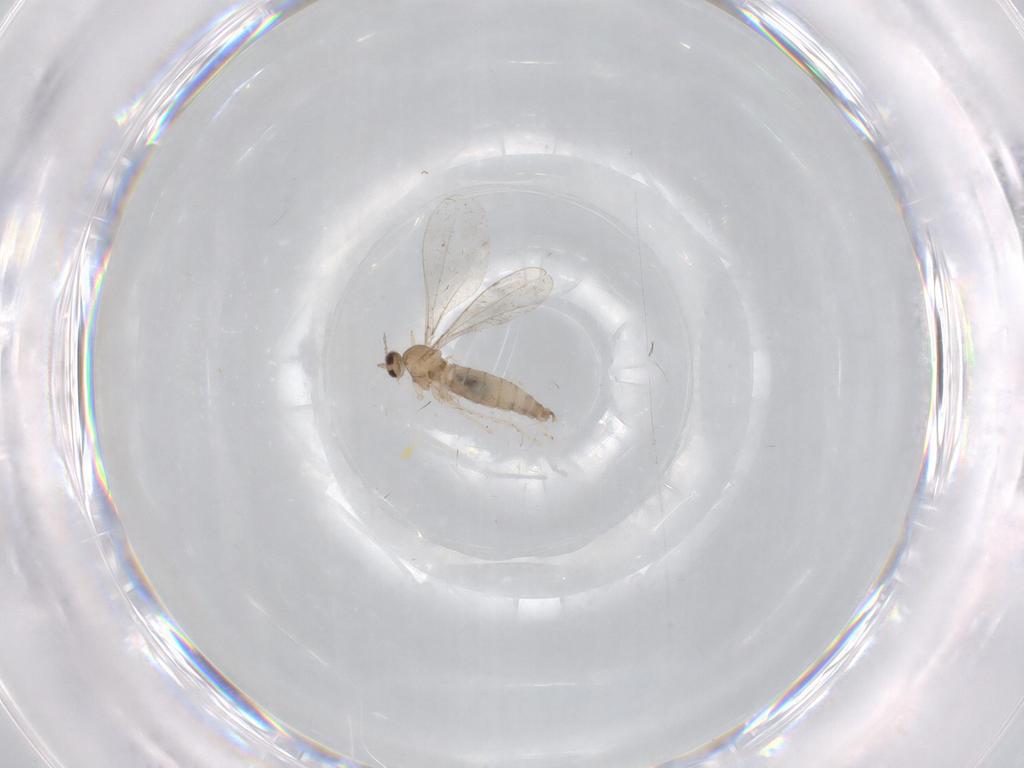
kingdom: Animalia
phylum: Arthropoda
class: Insecta
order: Diptera
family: Cecidomyiidae
